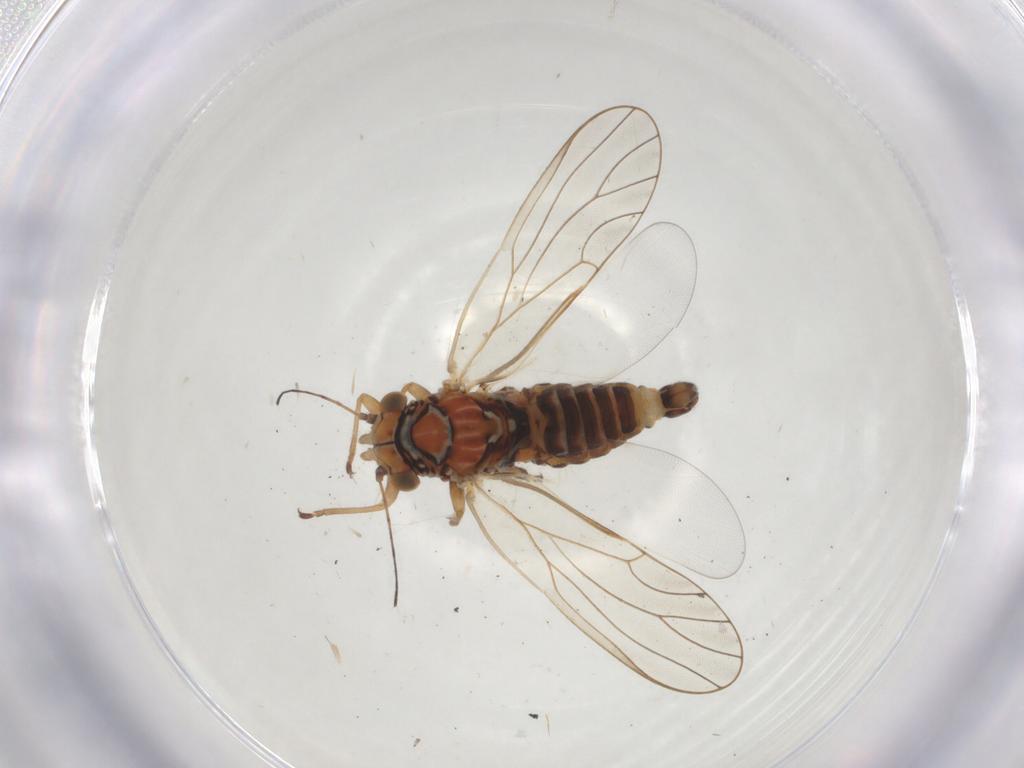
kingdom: Animalia
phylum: Arthropoda
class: Insecta
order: Hemiptera
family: Psyllidae
